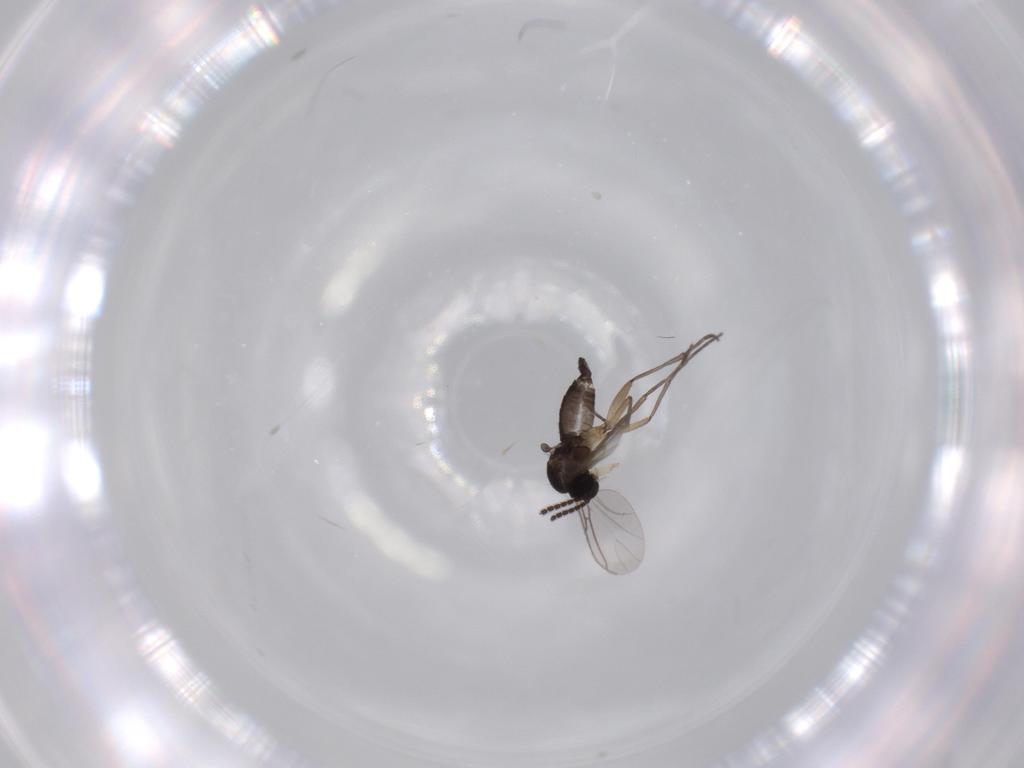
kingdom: Animalia
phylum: Arthropoda
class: Insecta
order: Diptera
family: Sciaridae
